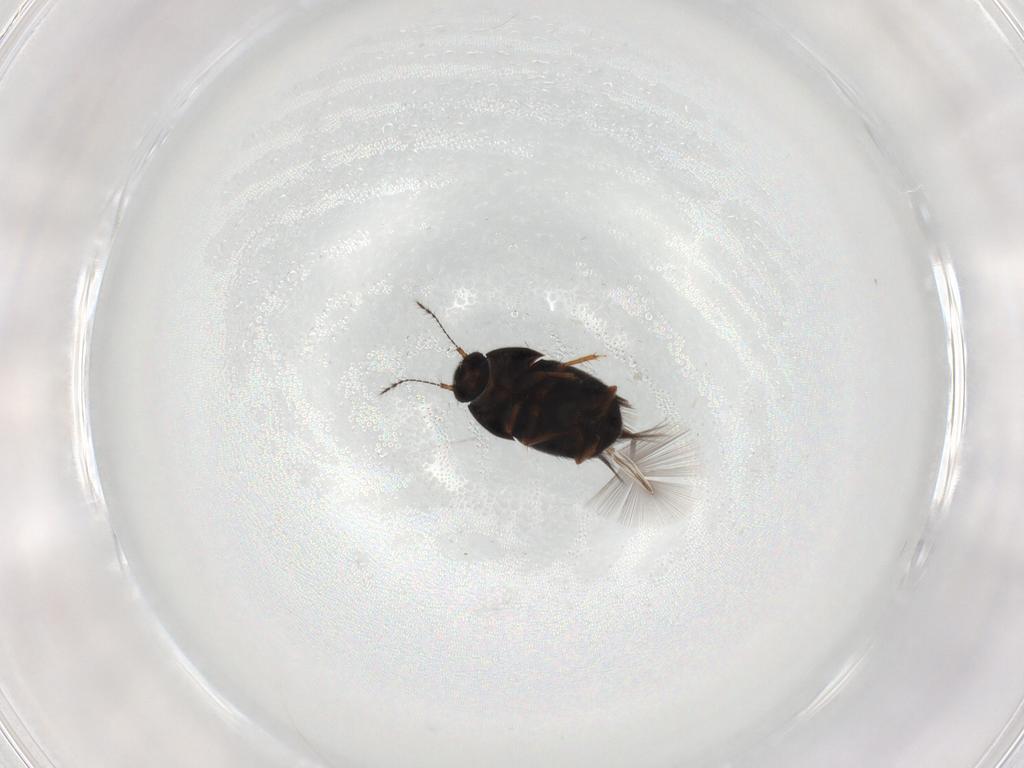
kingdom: Animalia
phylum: Arthropoda
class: Insecta
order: Coleoptera
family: Ptiliidae
